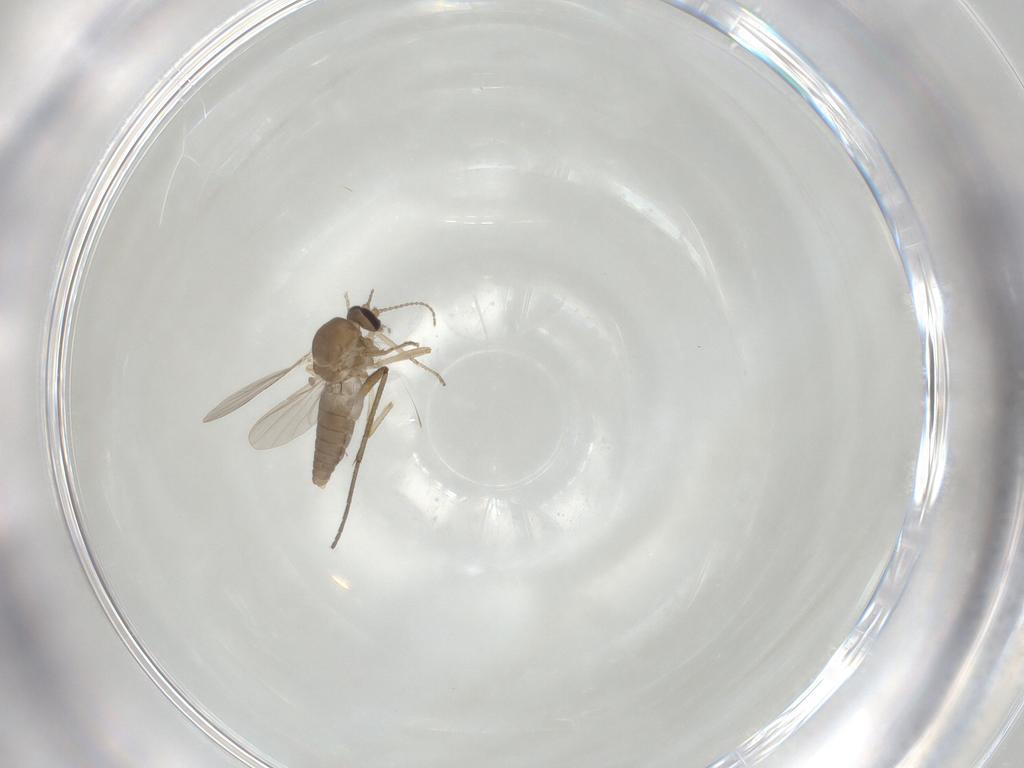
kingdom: Animalia
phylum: Arthropoda
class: Insecta
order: Diptera
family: Ceratopogonidae
